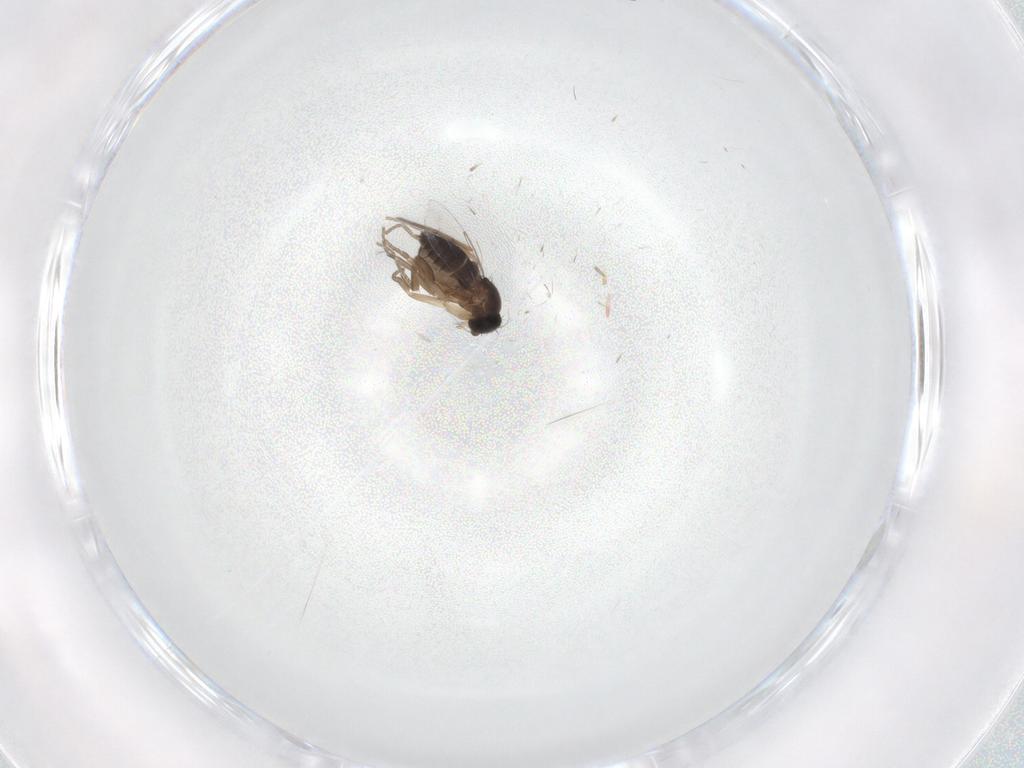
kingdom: Animalia
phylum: Arthropoda
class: Insecta
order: Diptera
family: Phoridae
